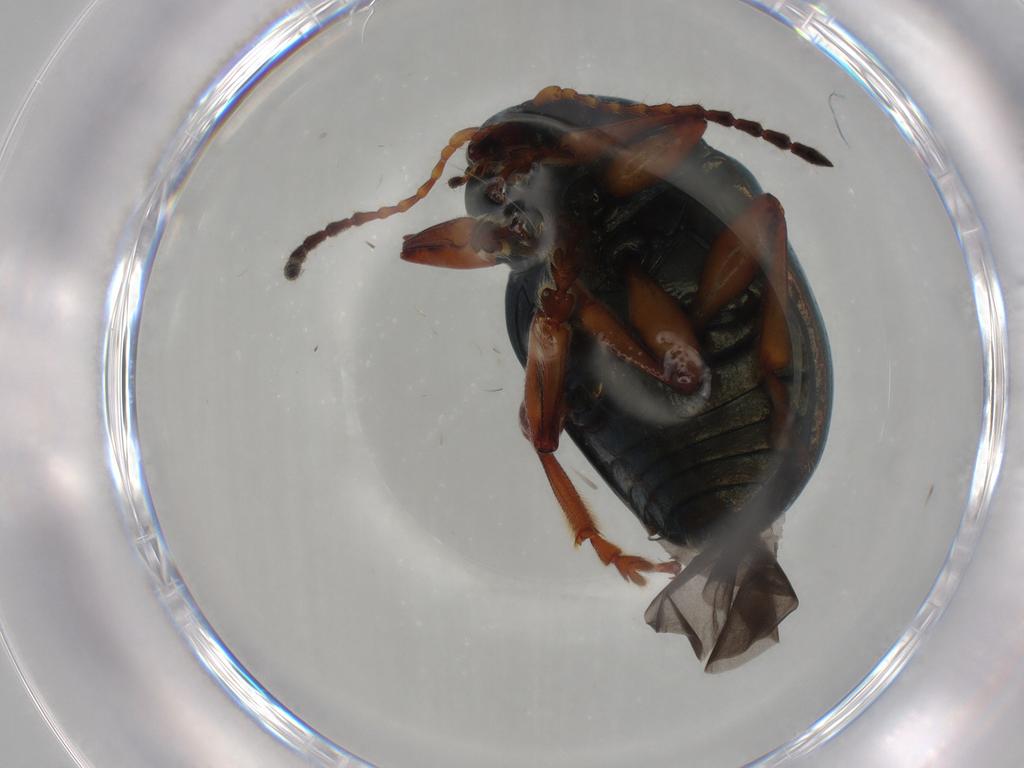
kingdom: Animalia
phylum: Arthropoda
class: Insecta
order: Coleoptera
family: Chrysomelidae
